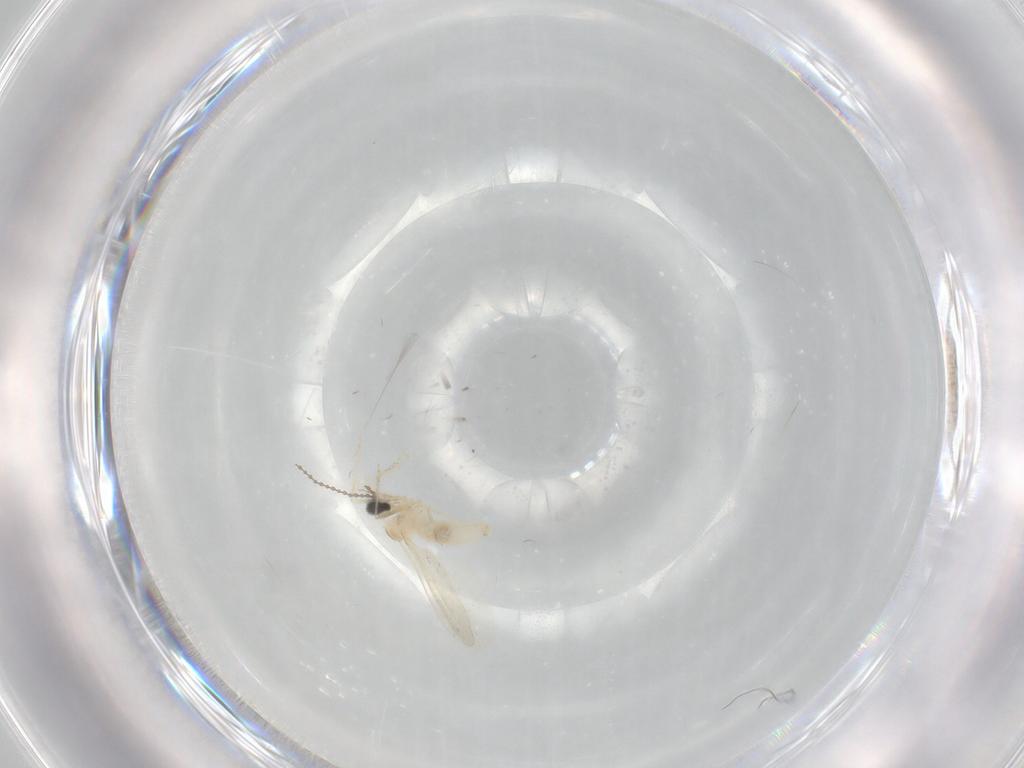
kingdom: Animalia
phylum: Arthropoda
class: Insecta
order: Diptera
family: Cecidomyiidae
